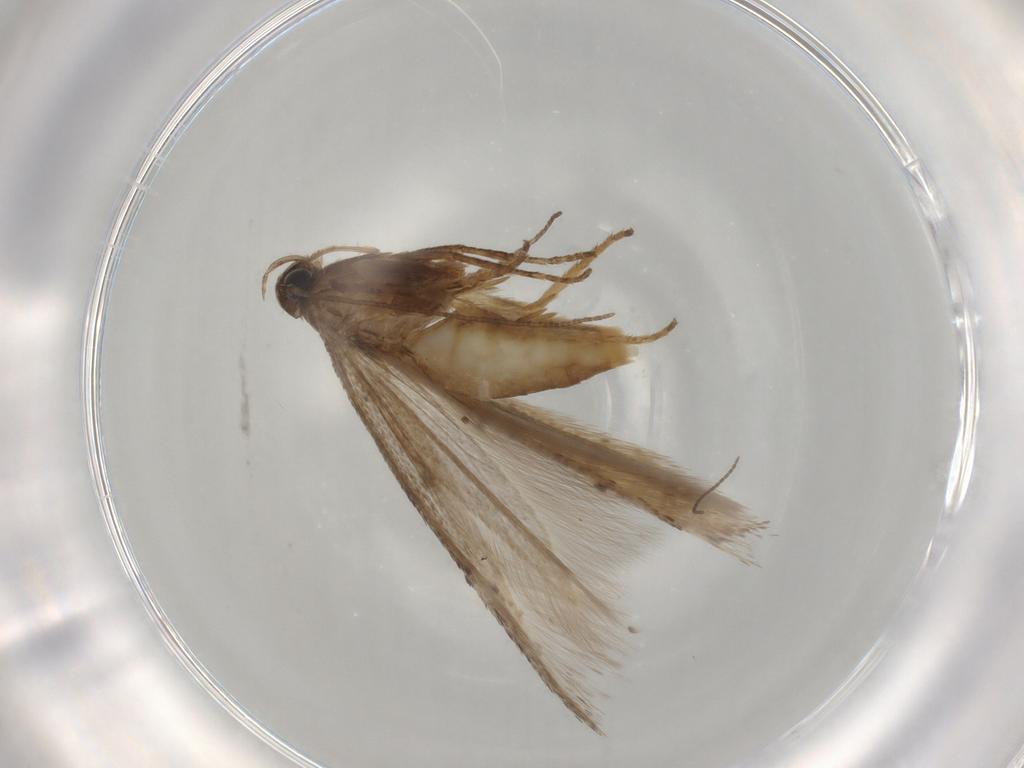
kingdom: Animalia
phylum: Arthropoda
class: Insecta
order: Lepidoptera
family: Gelechiidae
